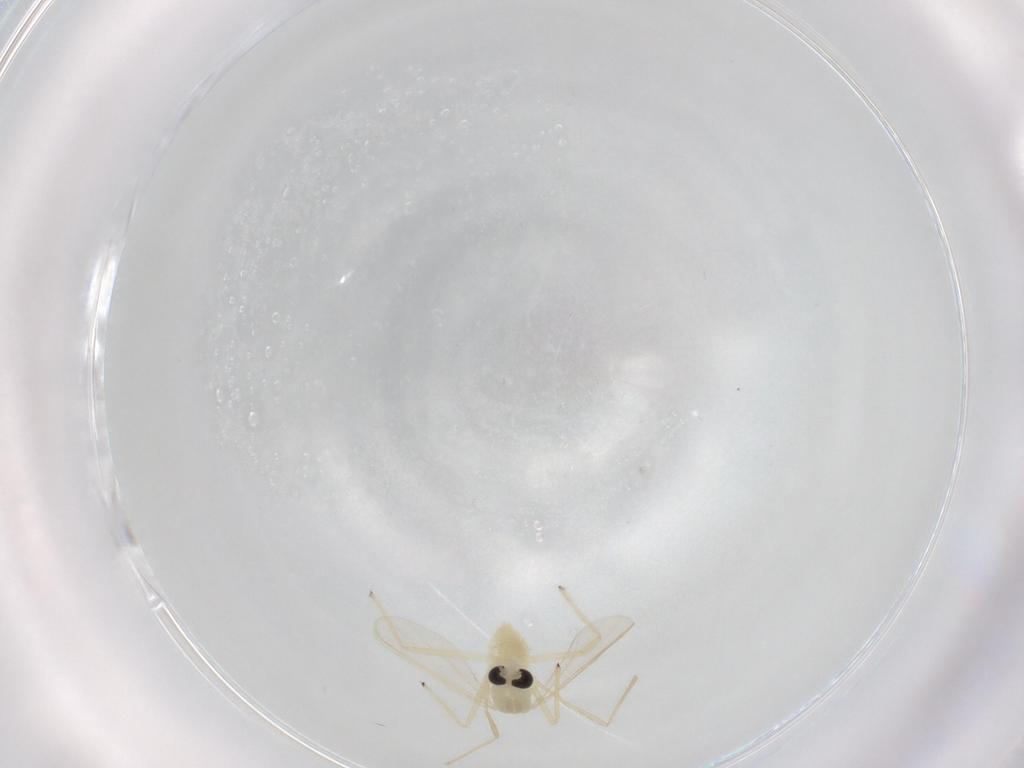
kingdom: Animalia
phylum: Arthropoda
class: Insecta
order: Diptera
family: Chironomidae
